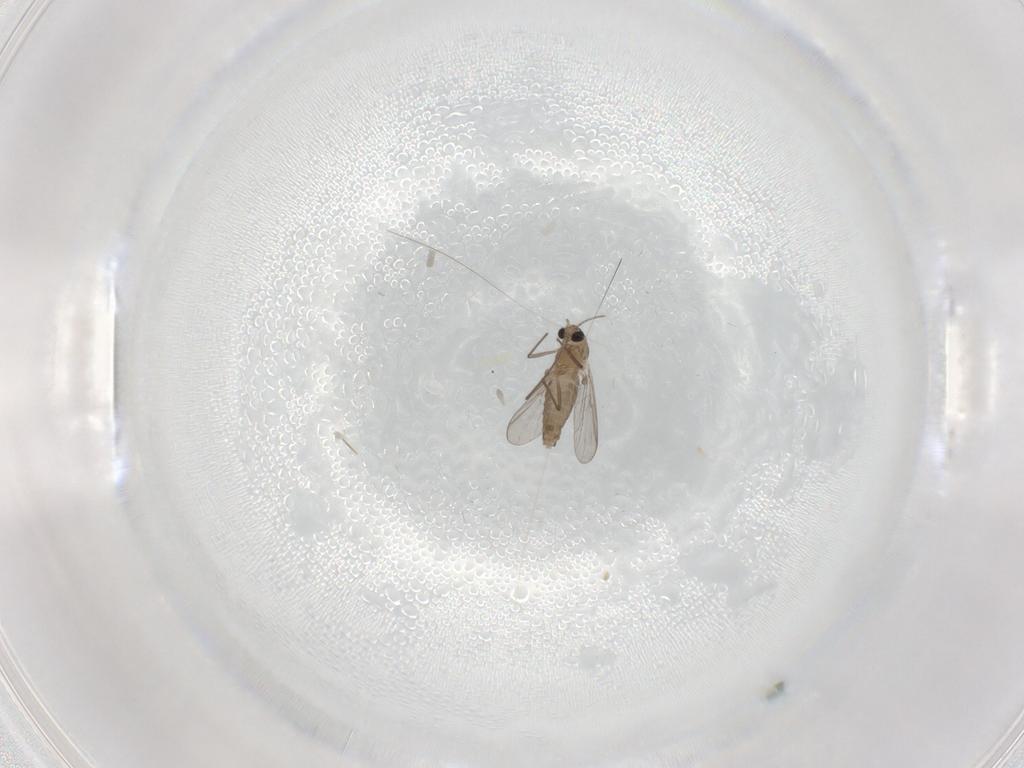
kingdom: Animalia
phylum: Arthropoda
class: Insecta
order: Diptera
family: Chironomidae
